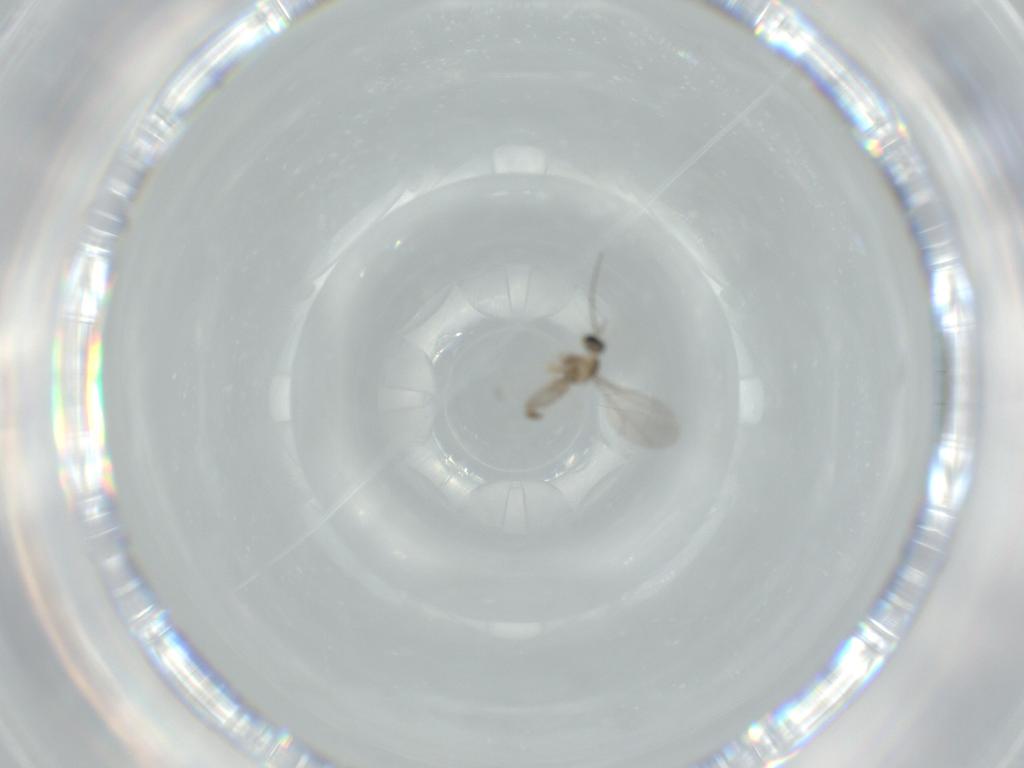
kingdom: Animalia
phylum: Arthropoda
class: Insecta
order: Diptera
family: Cecidomyiidae
